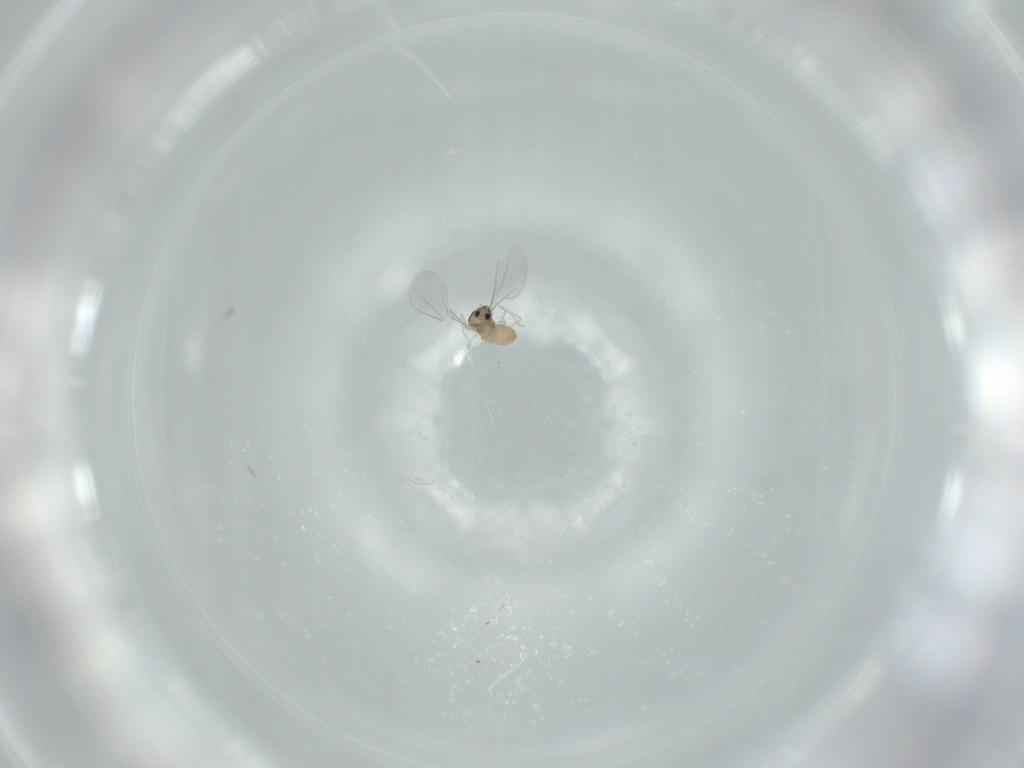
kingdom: Animalia
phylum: Arthropoda
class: Insecta
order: Diptera
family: Cecidomyiidae
